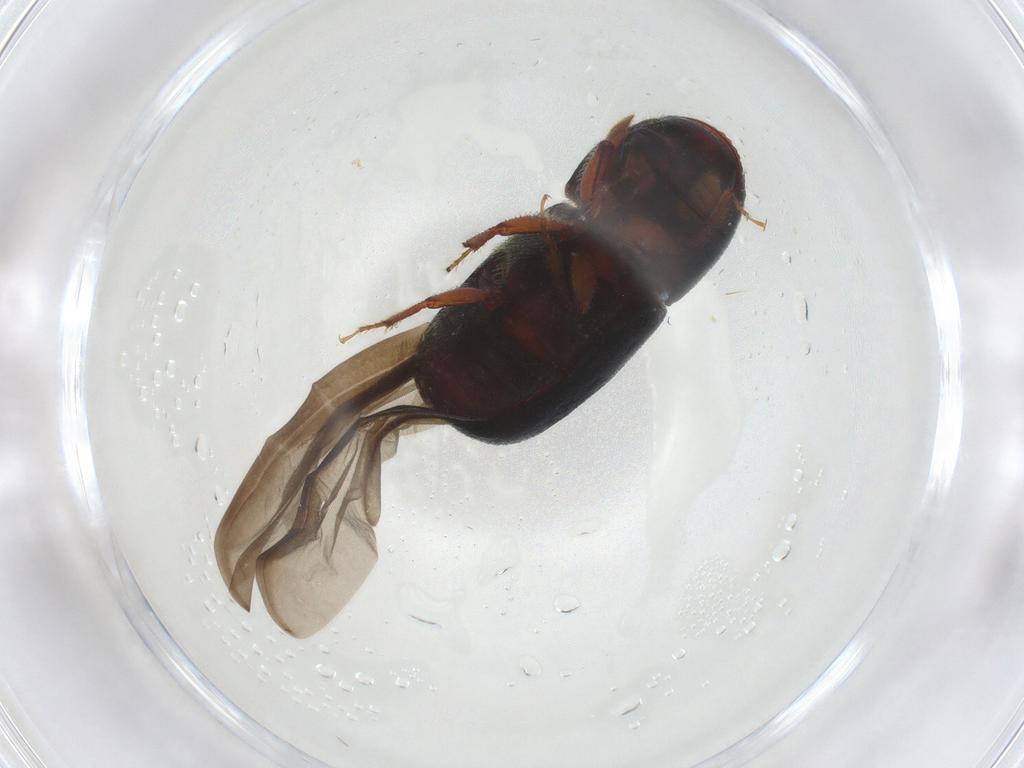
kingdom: Animalia
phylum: Arthropoda
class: Insecta
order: Coleoptera
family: Curculionidae
